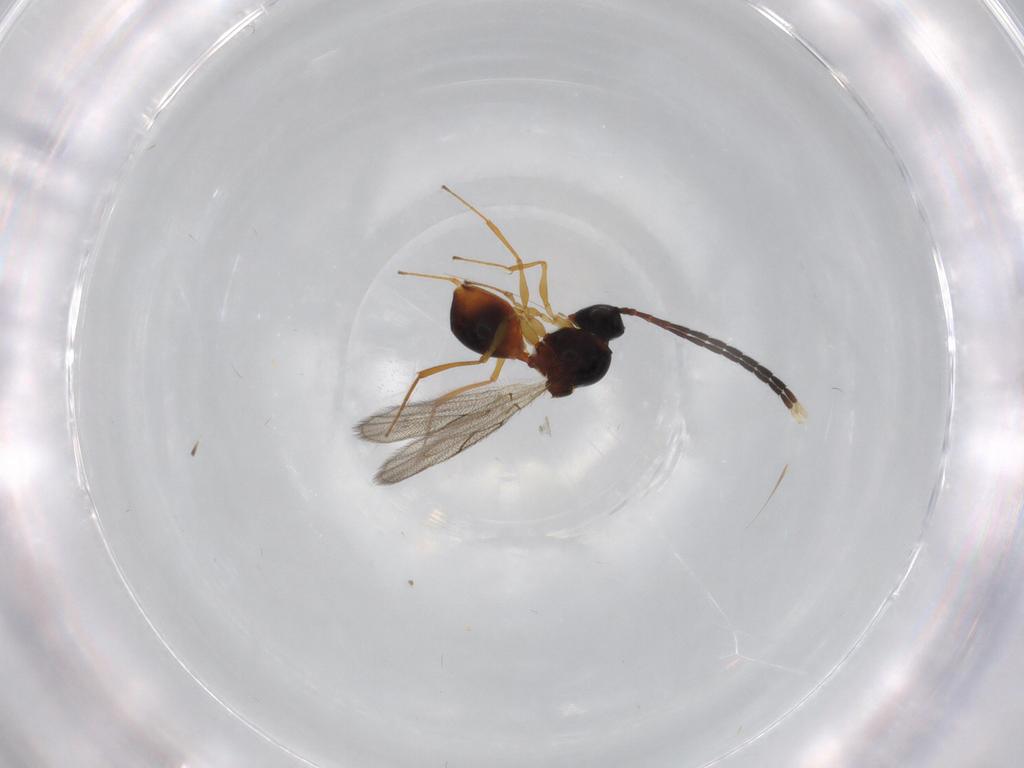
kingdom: Animalia
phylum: Arthropoda
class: Insecta
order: Hymenoptera
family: Figitidae
